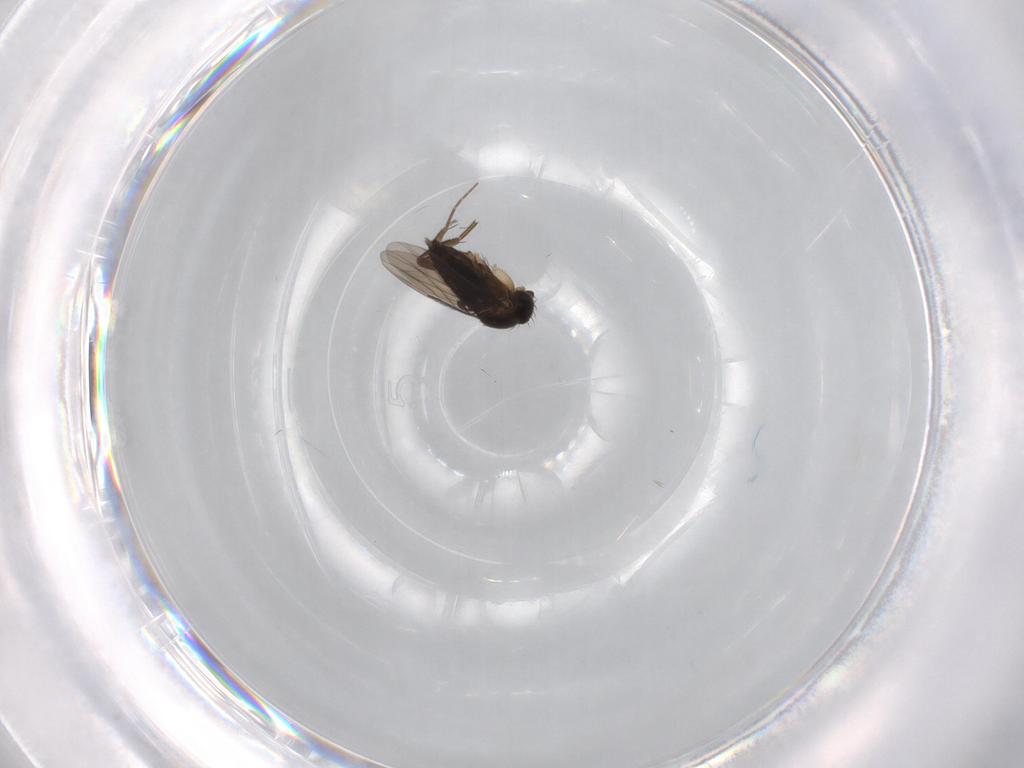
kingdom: Animalia
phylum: Arthropoda
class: Insecta
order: Diptera
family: Phoridae
